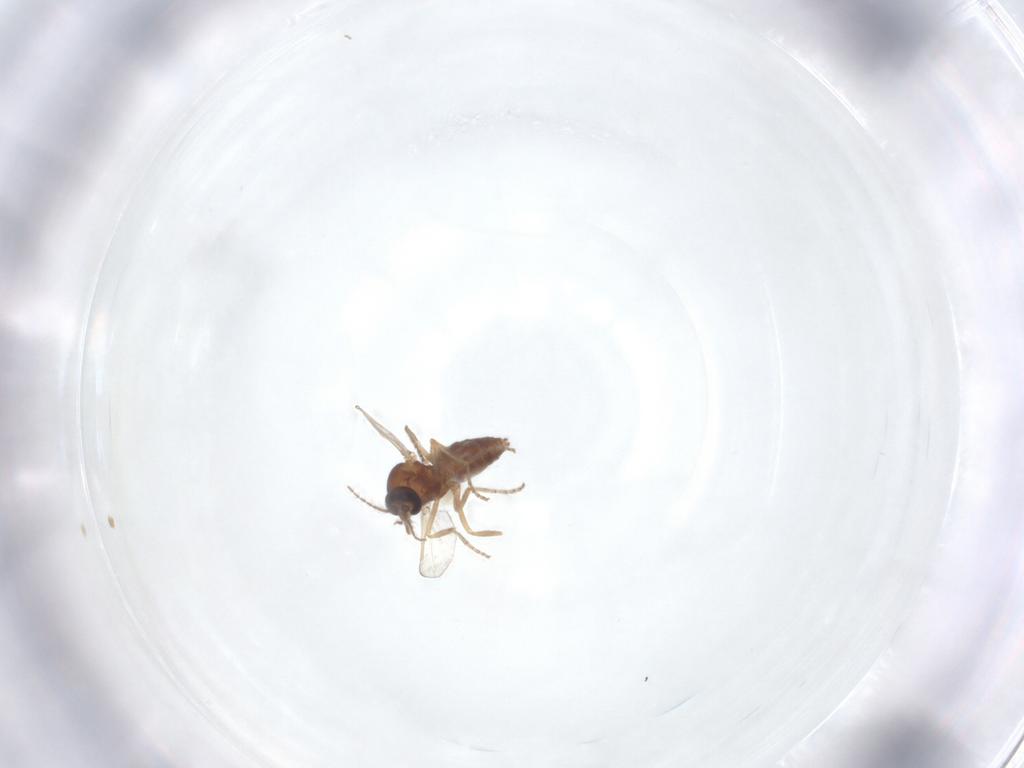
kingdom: Animalia
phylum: Arthropoda
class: Insecta
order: Diptera
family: Ceratopogonidae
